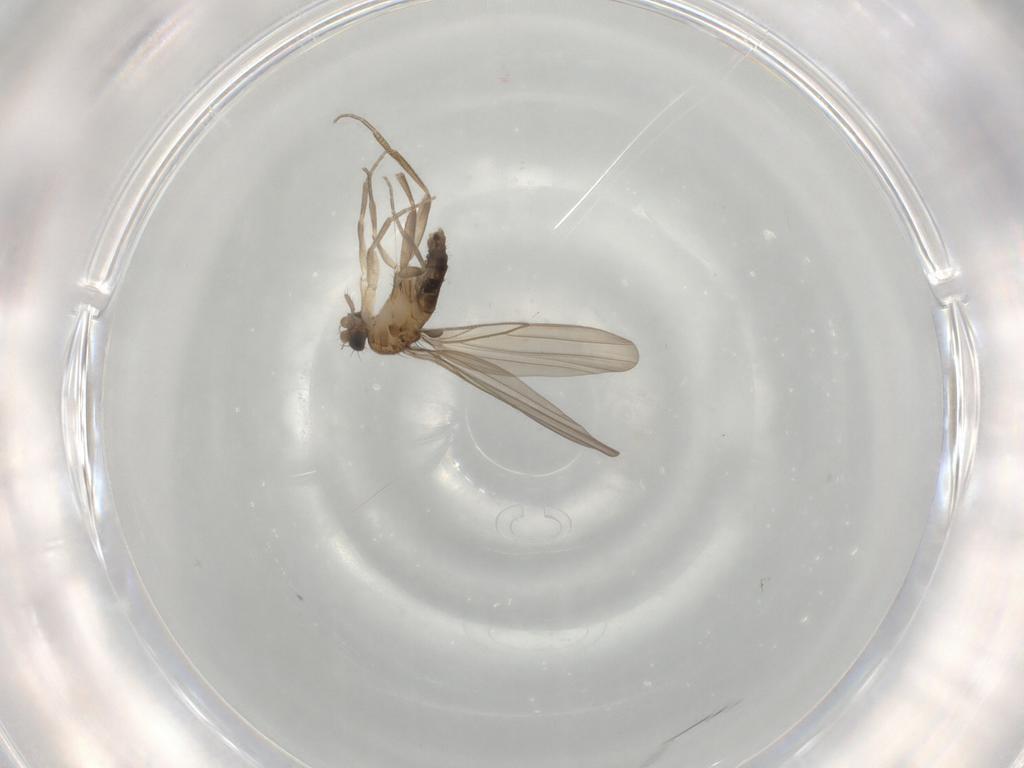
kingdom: Animalia
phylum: Arthropoda
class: Insecta
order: Diptera
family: Phoridae
